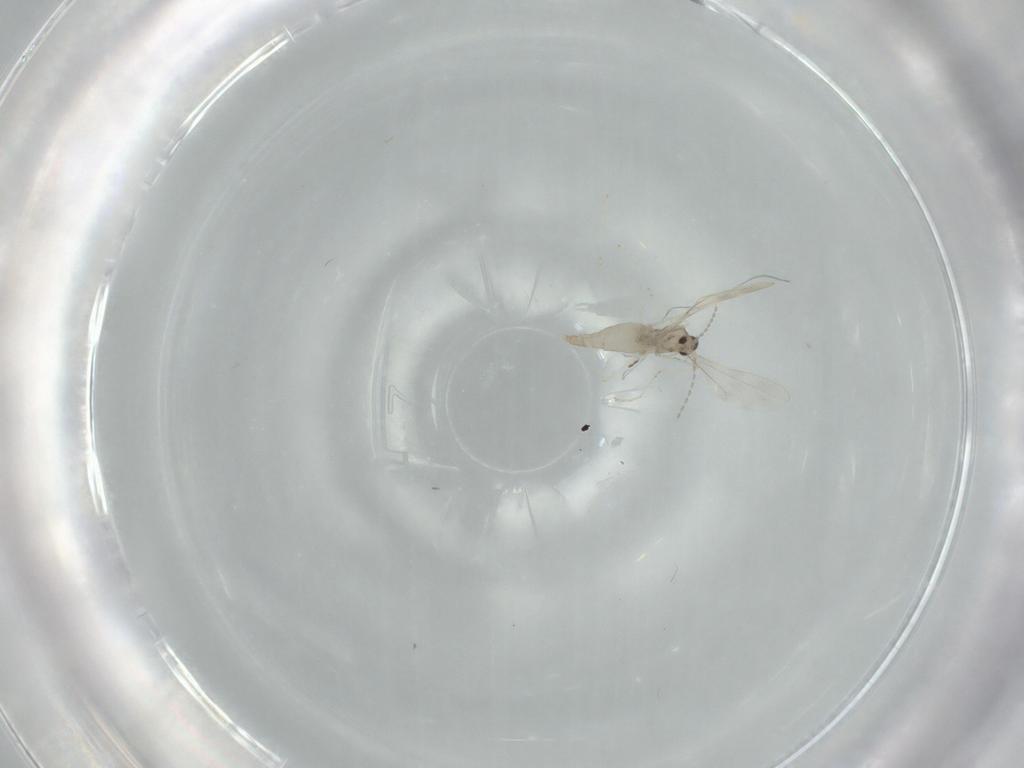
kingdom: Animalia
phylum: Arthropoda
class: Insecta
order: Diptera
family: Cecidomyiidae
